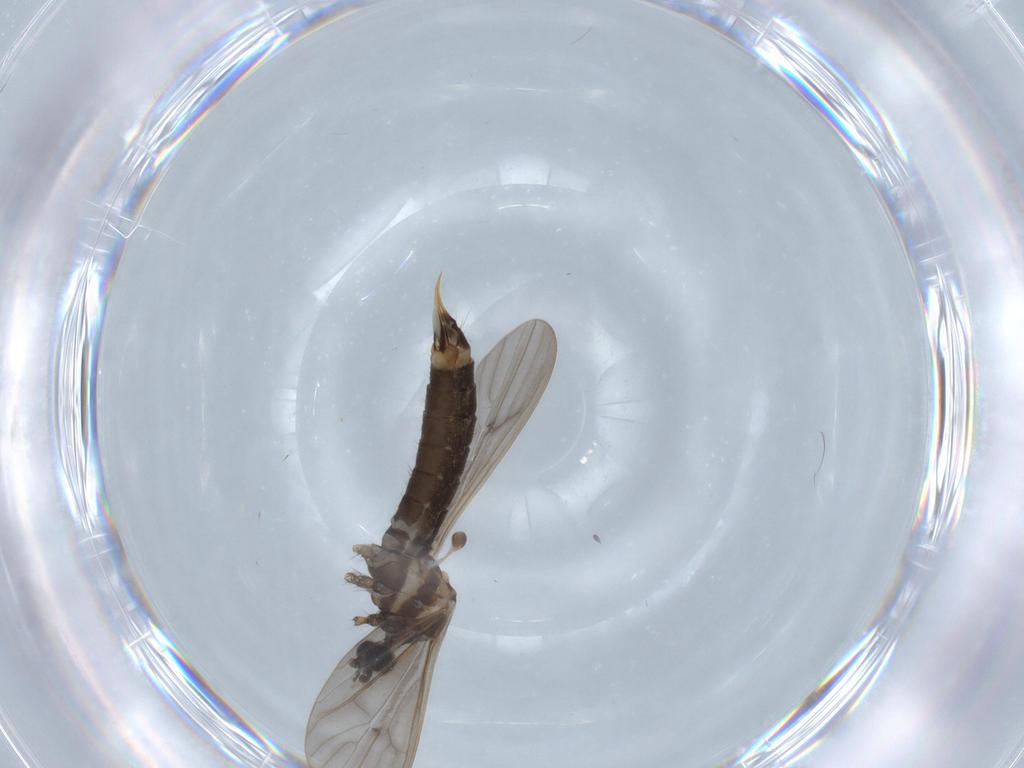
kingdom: Animalia
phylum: Arthropoda
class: Insecta
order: Diptera
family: Limoniidae
